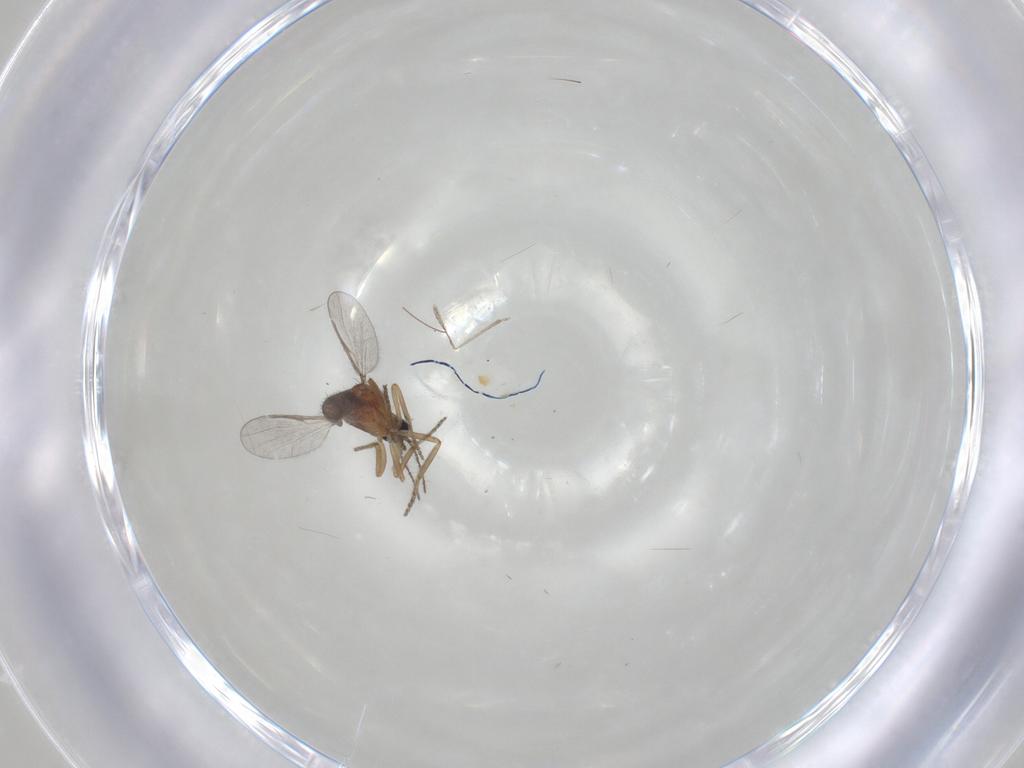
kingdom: Animalia
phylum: Arthropoda
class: Insecta
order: Diptera
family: Ceratopogonidae
